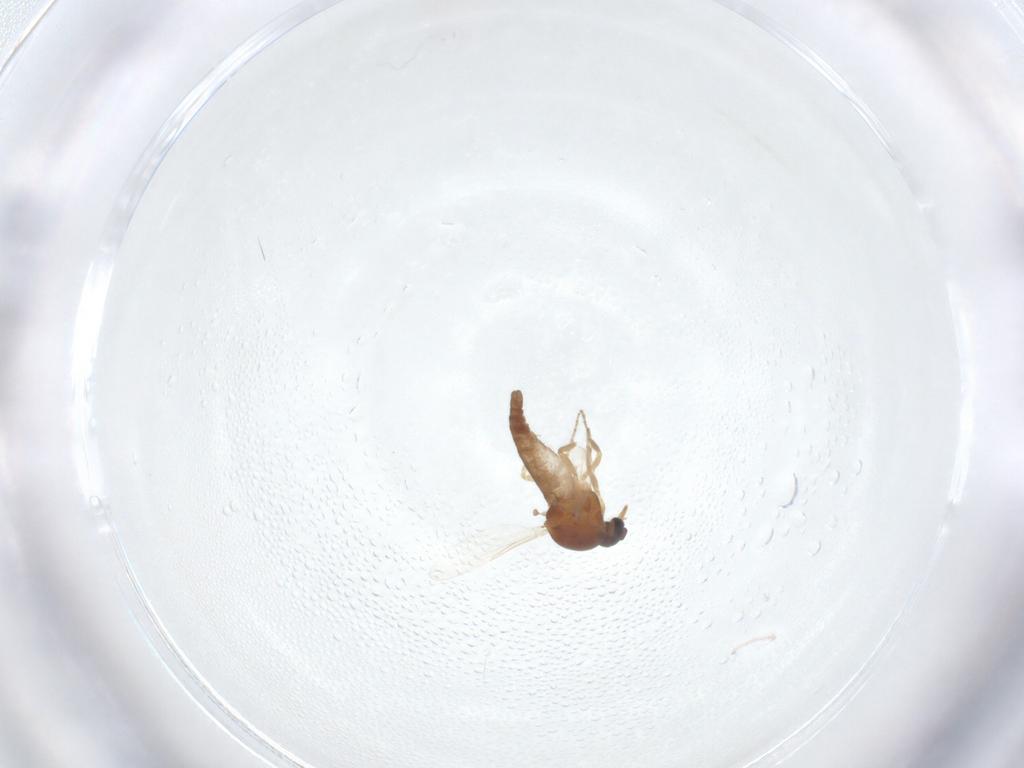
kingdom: Animalia
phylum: Arthropoda
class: Insecta
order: Diptera
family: Ceratopogonidae
